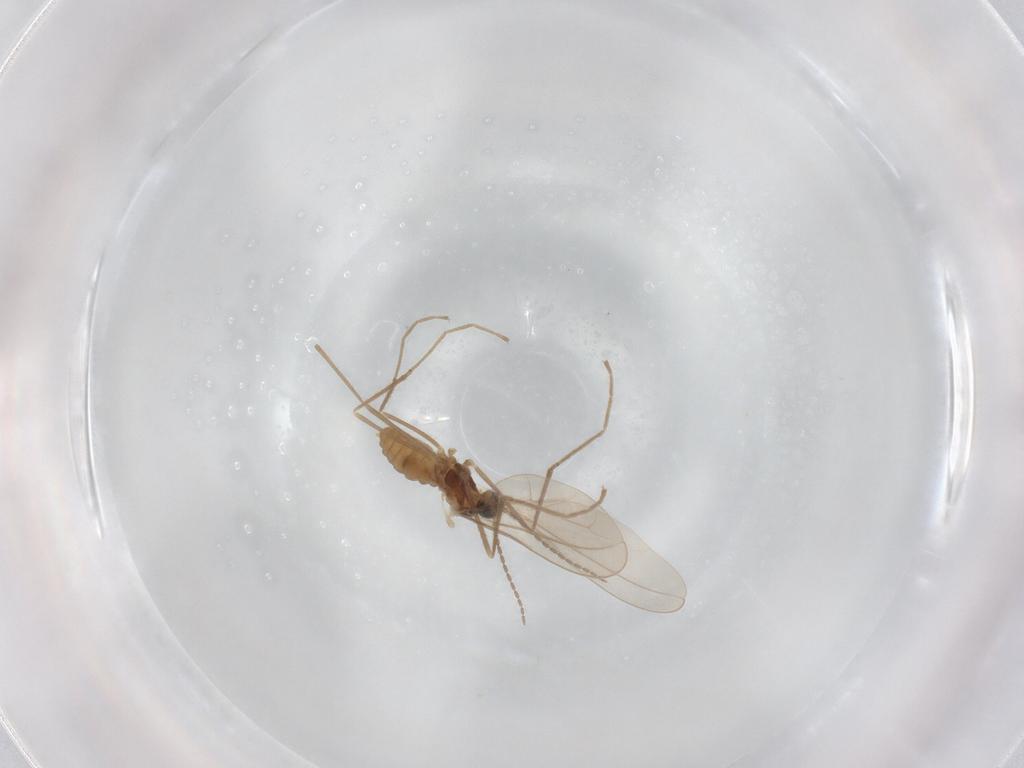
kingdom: Animalia
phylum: Arthropoda
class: Insecta
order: Diptera
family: Cecidomyiidae
